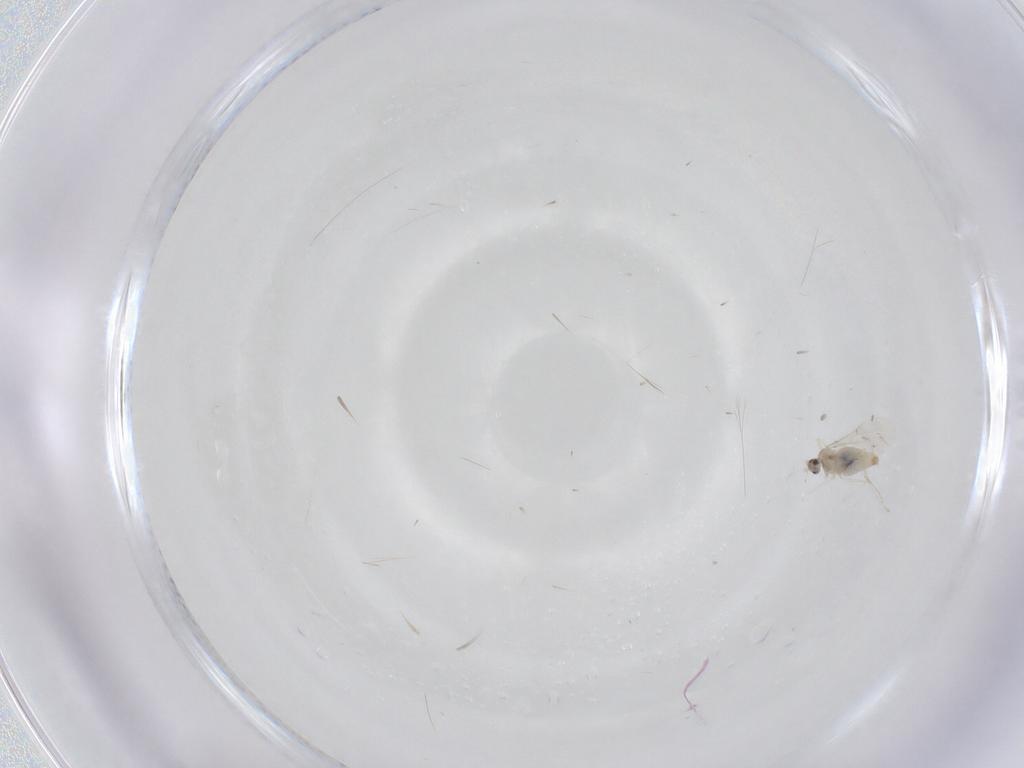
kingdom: Animalia
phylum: Arthropoda
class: Insecta
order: Diptera
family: Cecidomyiidae
